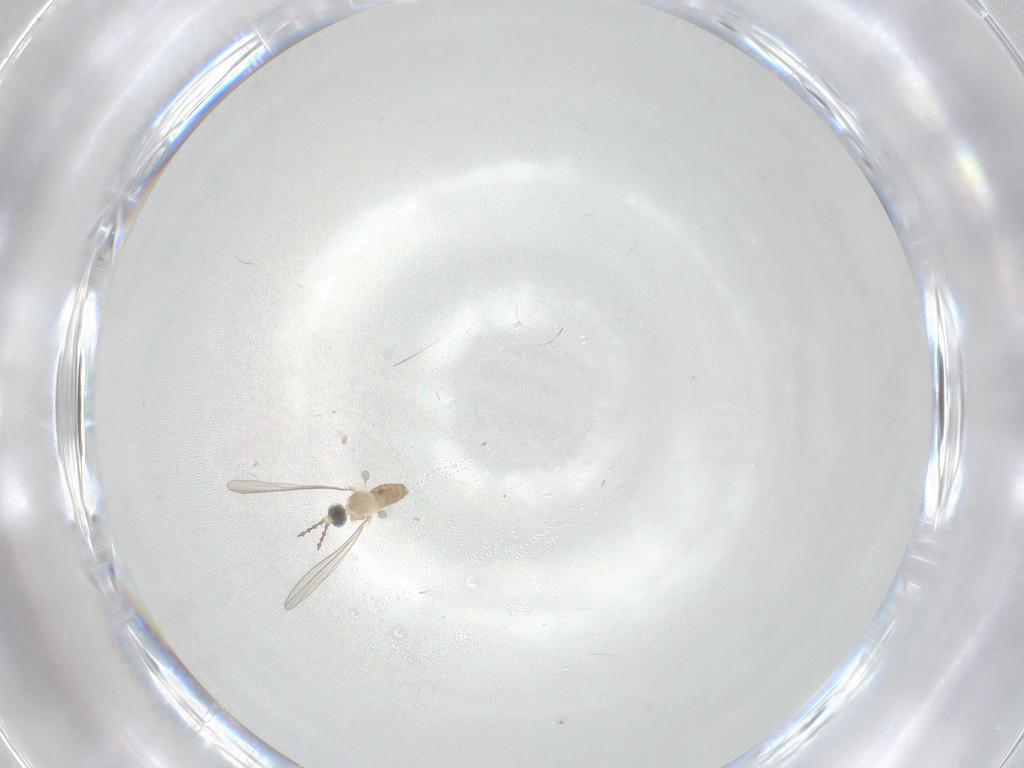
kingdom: Animalia
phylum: Arthropoda
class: Insecta
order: Diptera
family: Cecidomyiidae
